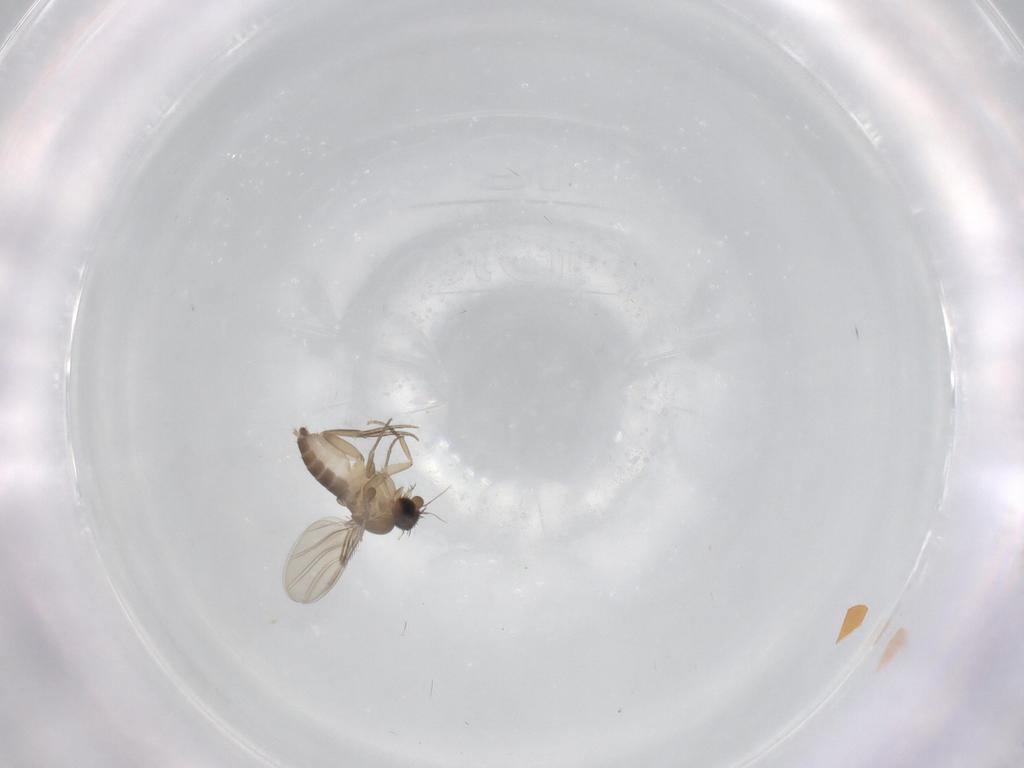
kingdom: Animalia
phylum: Arthropoda
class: Insecta
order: Diptera
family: Phoridae
